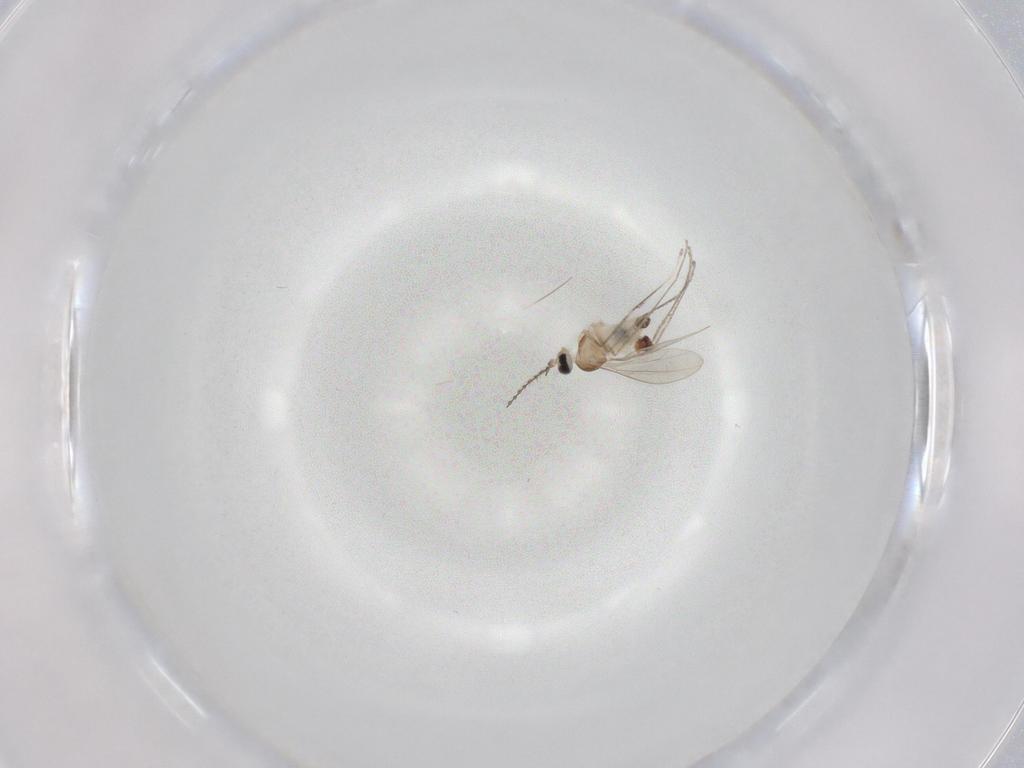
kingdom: Animalia
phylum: Arthropoda
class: Insecta
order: Diptera
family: Cecidomyiidae
